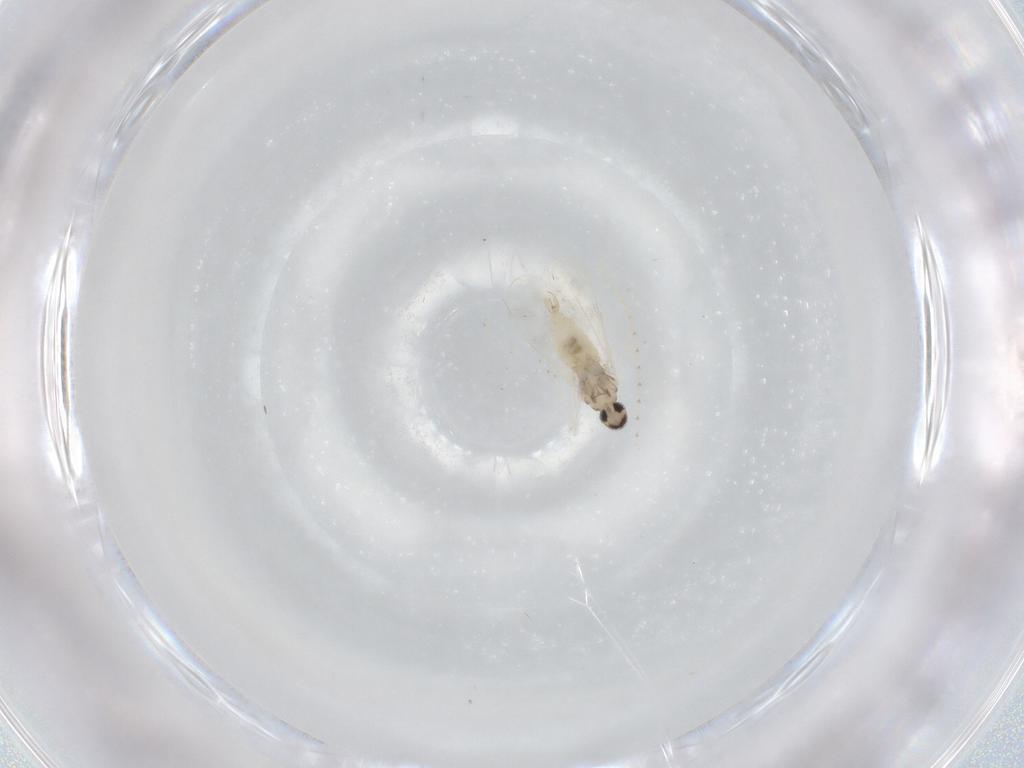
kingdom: Animalia
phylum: Arthropoda
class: Insecta
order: Diptera
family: Cecidomyiidae
